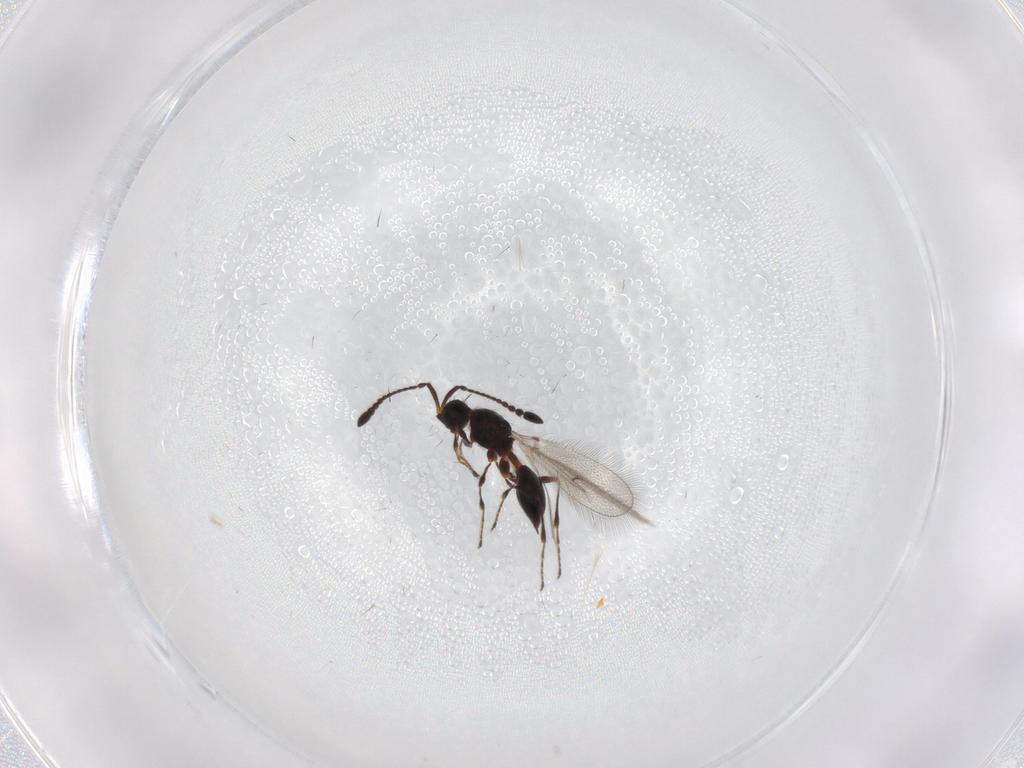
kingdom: Animalia
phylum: Arthropoda
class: Insecta
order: Hymenoptera
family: Diapriidae
